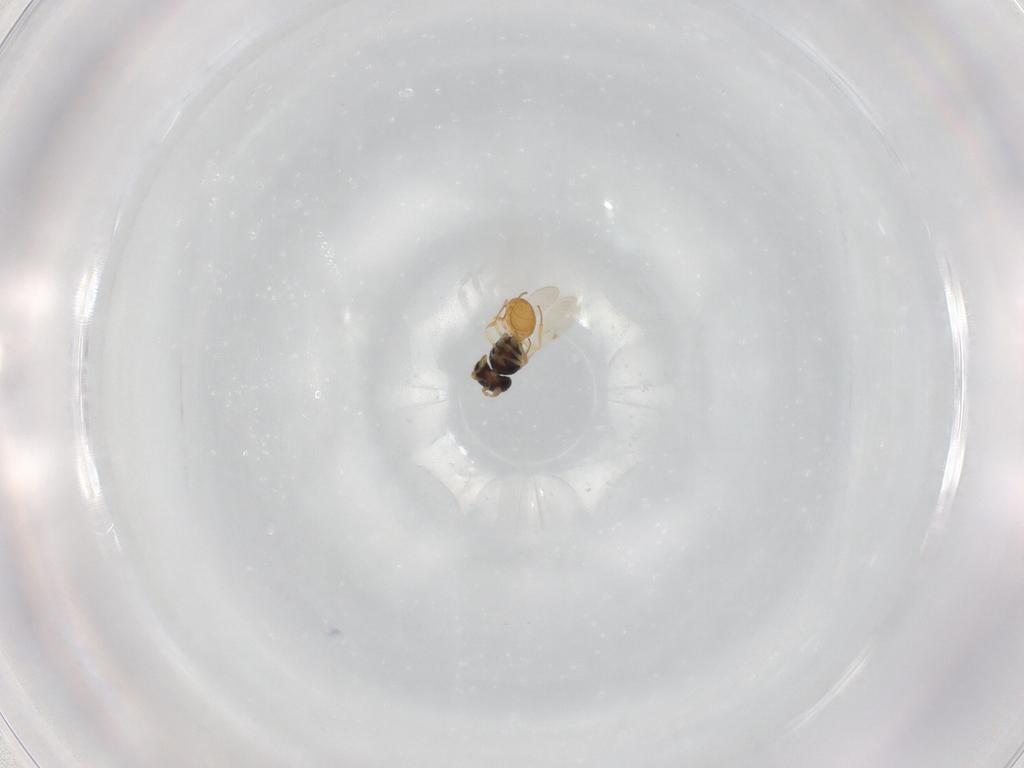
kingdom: Animalia
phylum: Arthropoda
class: Insecta
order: Hymenoptera
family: Scelionidae
